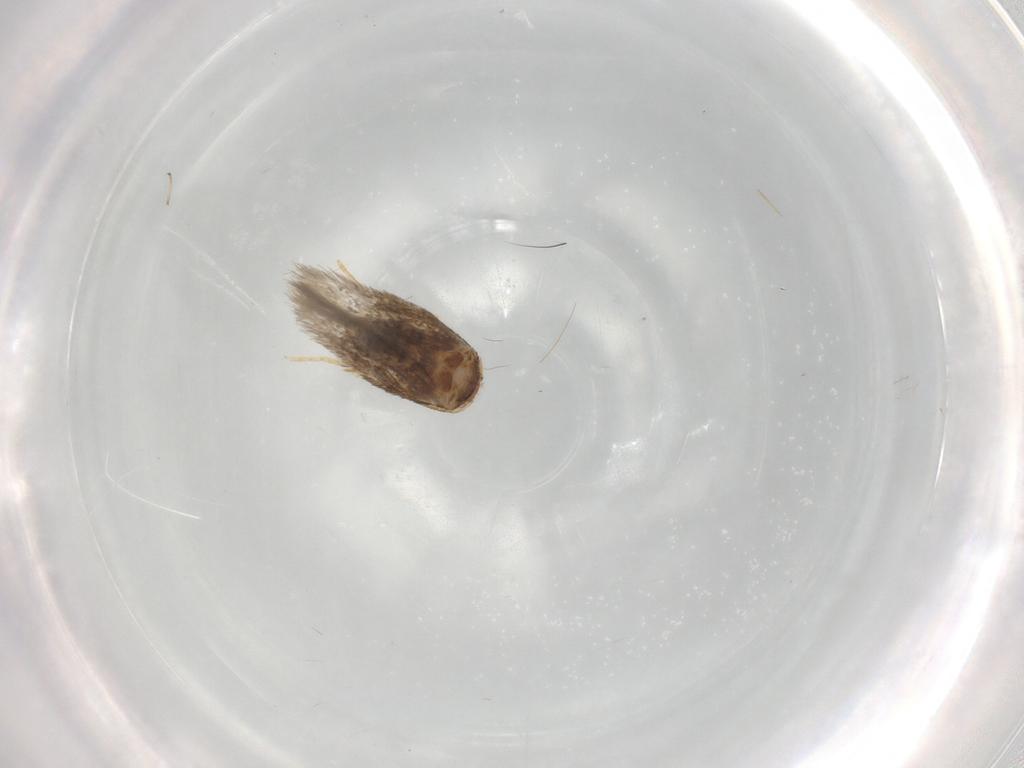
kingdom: Animalia
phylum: Arthropoda
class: Insecta
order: Lepidoptera
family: Nepticulidae
